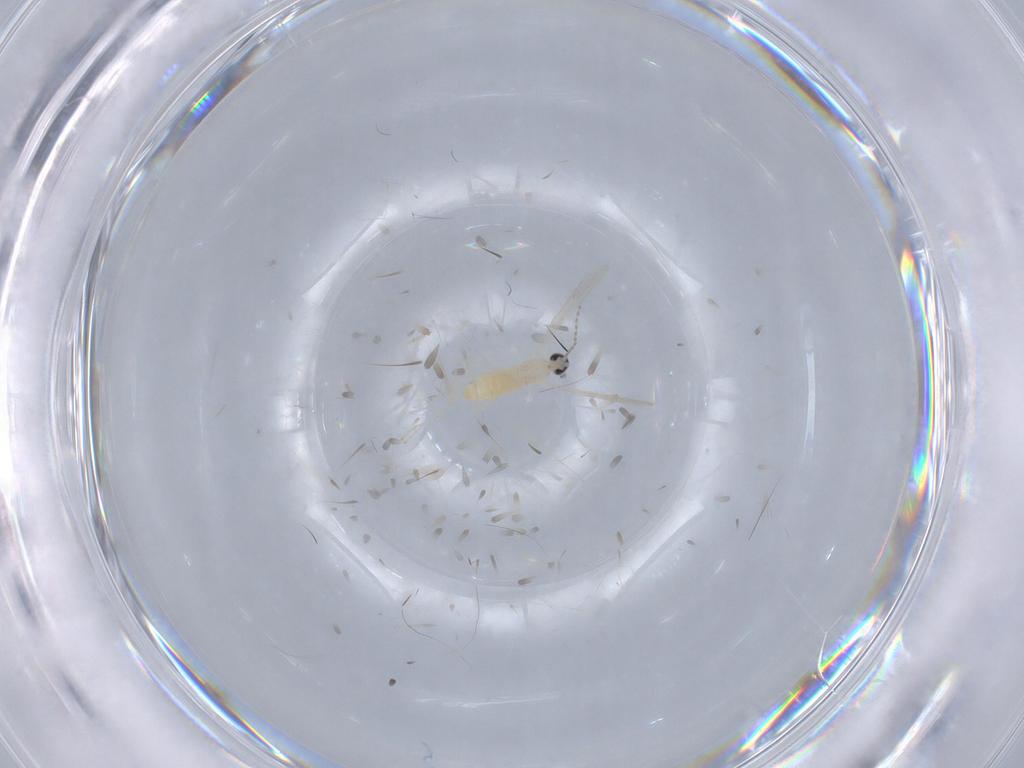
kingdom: Animalia
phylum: Arthropoda
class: Insecta
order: Diptera
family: Cecidomyiidae
